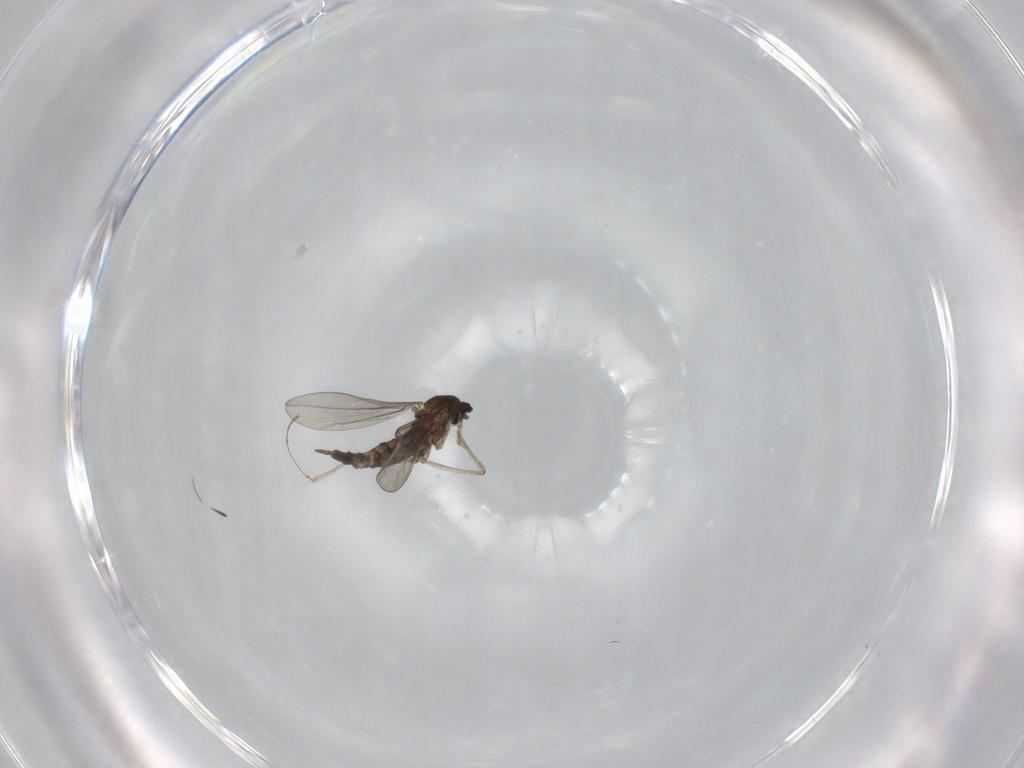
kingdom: Animalia
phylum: Arthropoda
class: Insecta
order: Diptera
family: Cecidomyiidae
